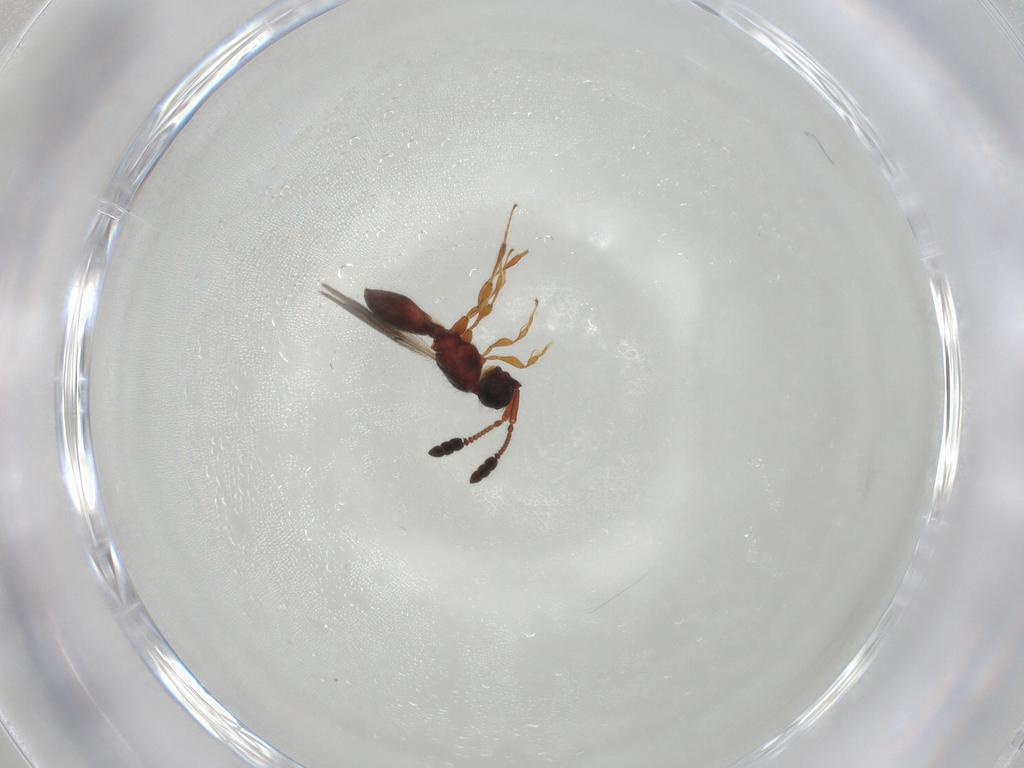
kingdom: Animalia
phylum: Arthropoda
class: Insecta
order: Hymenoptera
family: Diapriidae
